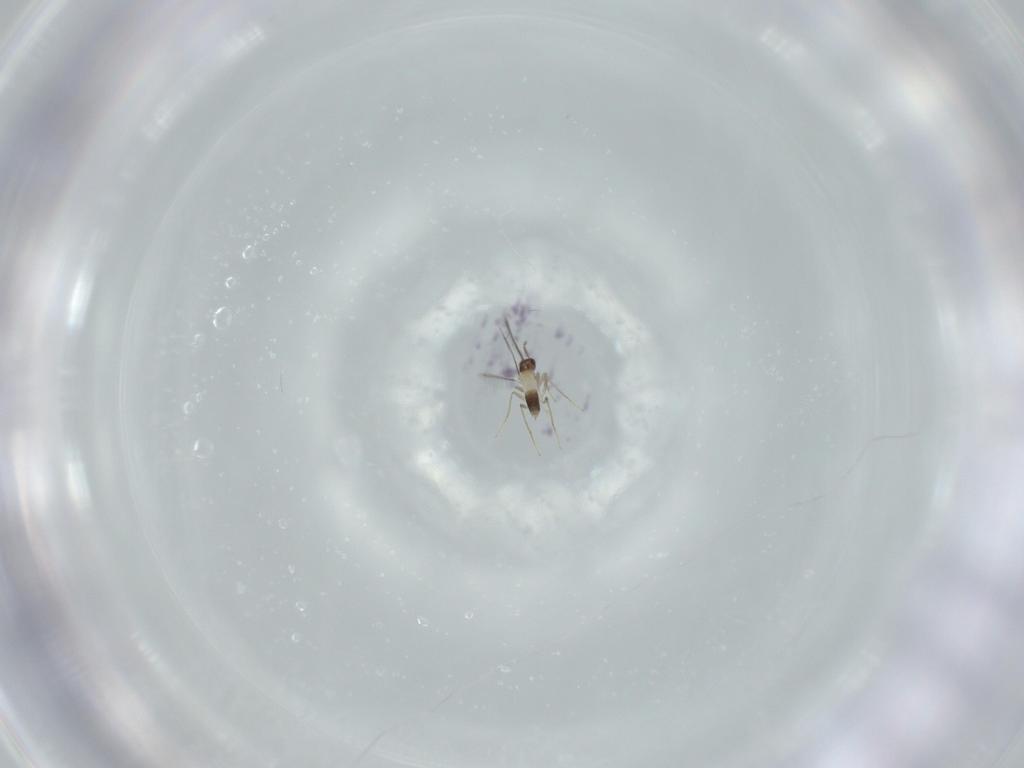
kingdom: Animalia
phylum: Arthropoda
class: Insecta
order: Hymenoptera
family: Mymaridae
